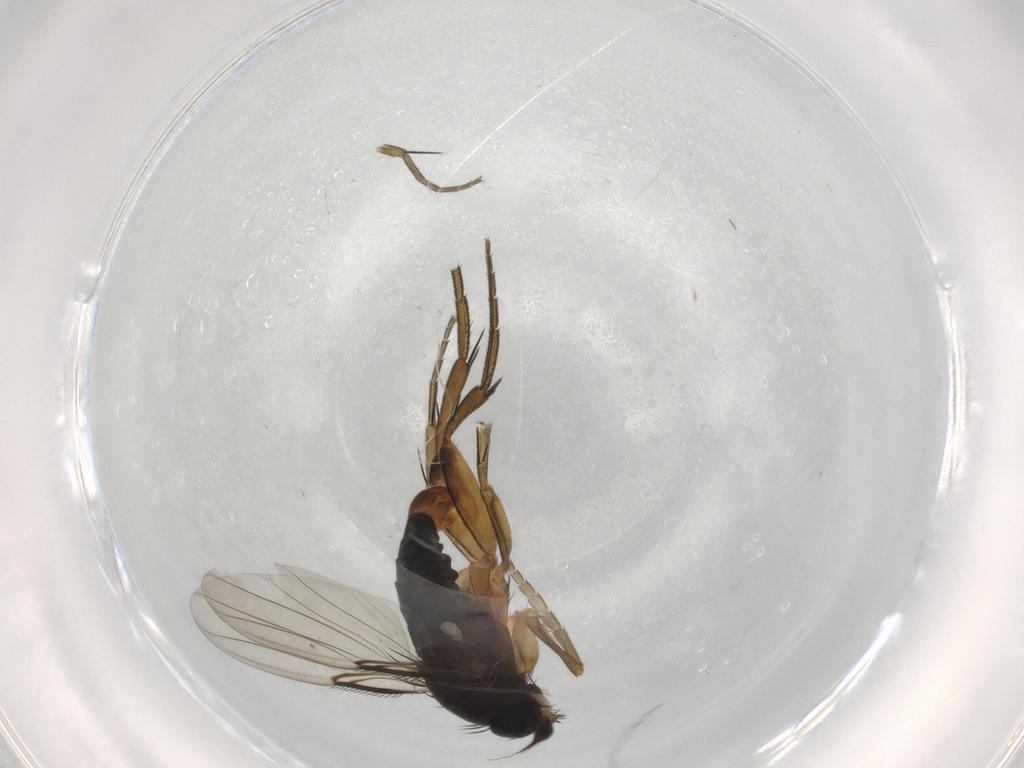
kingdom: Animalia
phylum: Arthropoda
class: Insecta
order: Diptera
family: Phoridae
